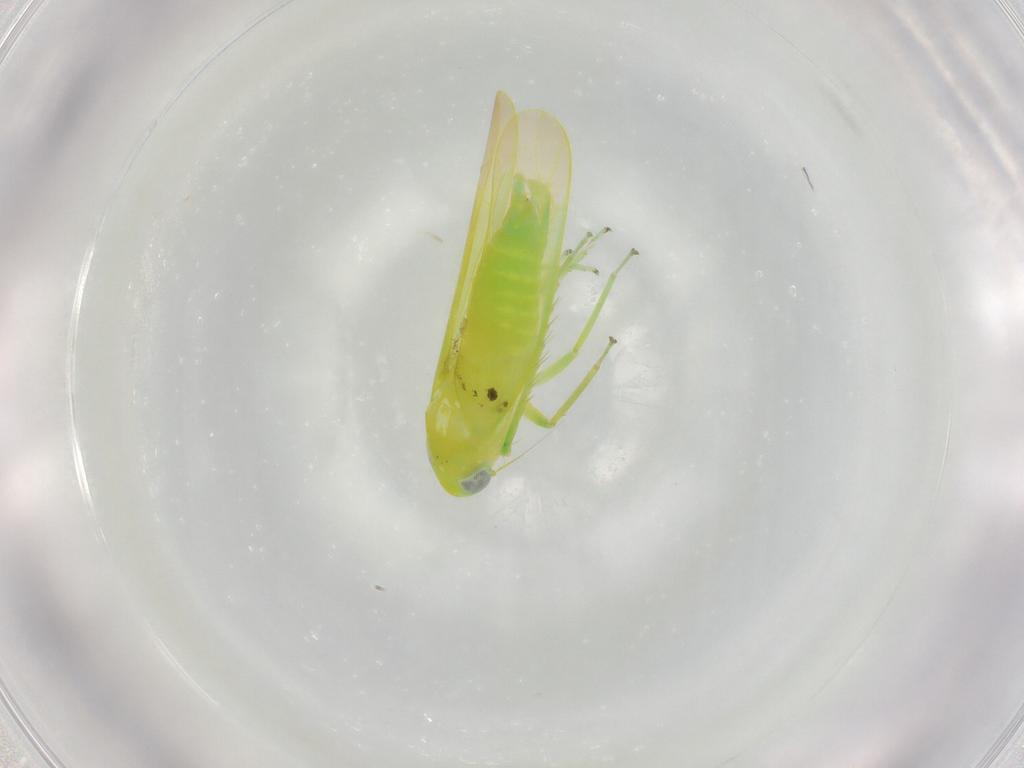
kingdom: Animalia
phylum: Arthropoda
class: Insecta
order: Hemiptera
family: Cicadellidae
